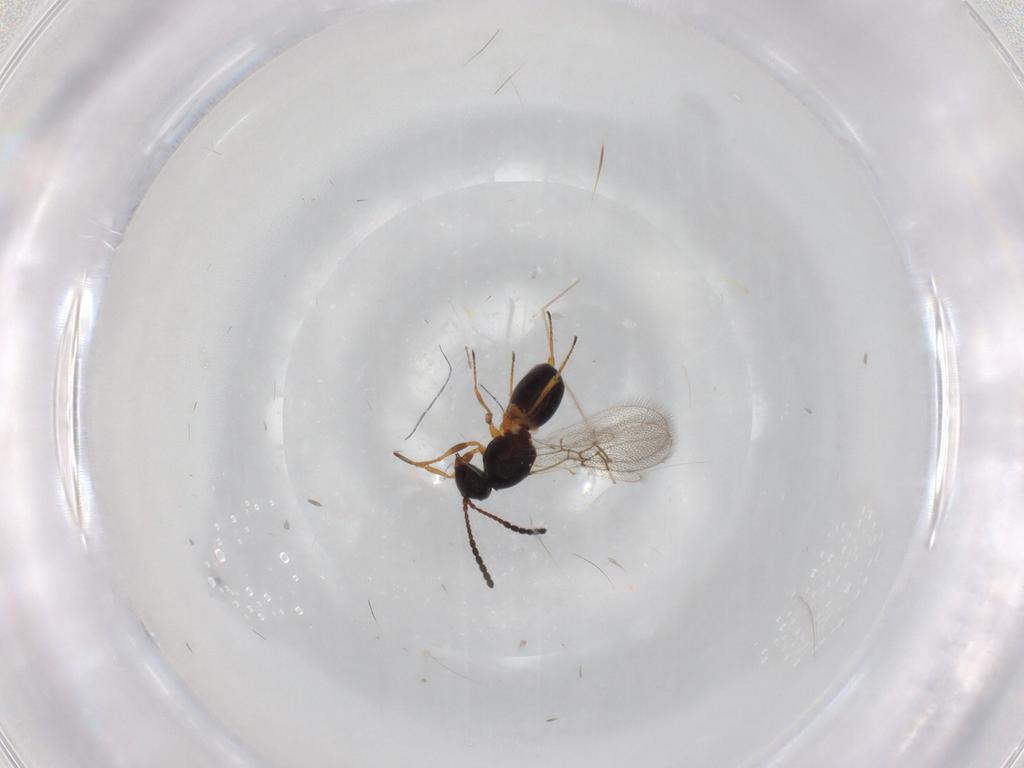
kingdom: Animalia
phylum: Arthropoda
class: Insecta
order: Hymenoptera
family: Figitidae
